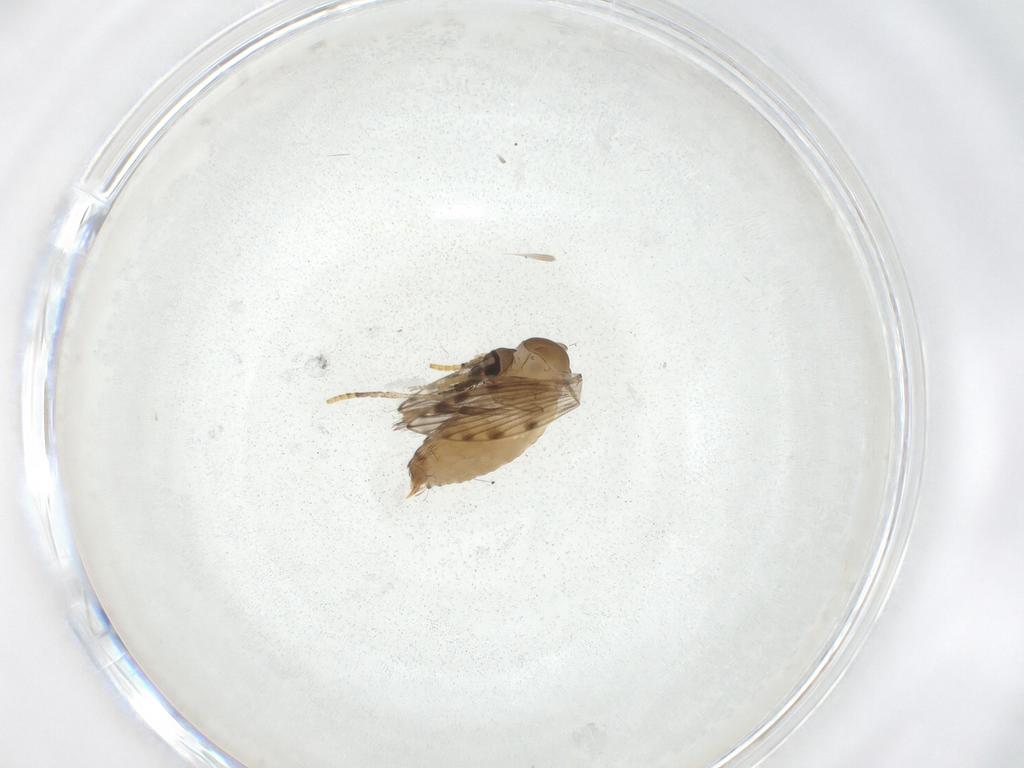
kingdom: Animalia
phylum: Arthropoda
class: Insecta
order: Diptera
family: Psychodidae
